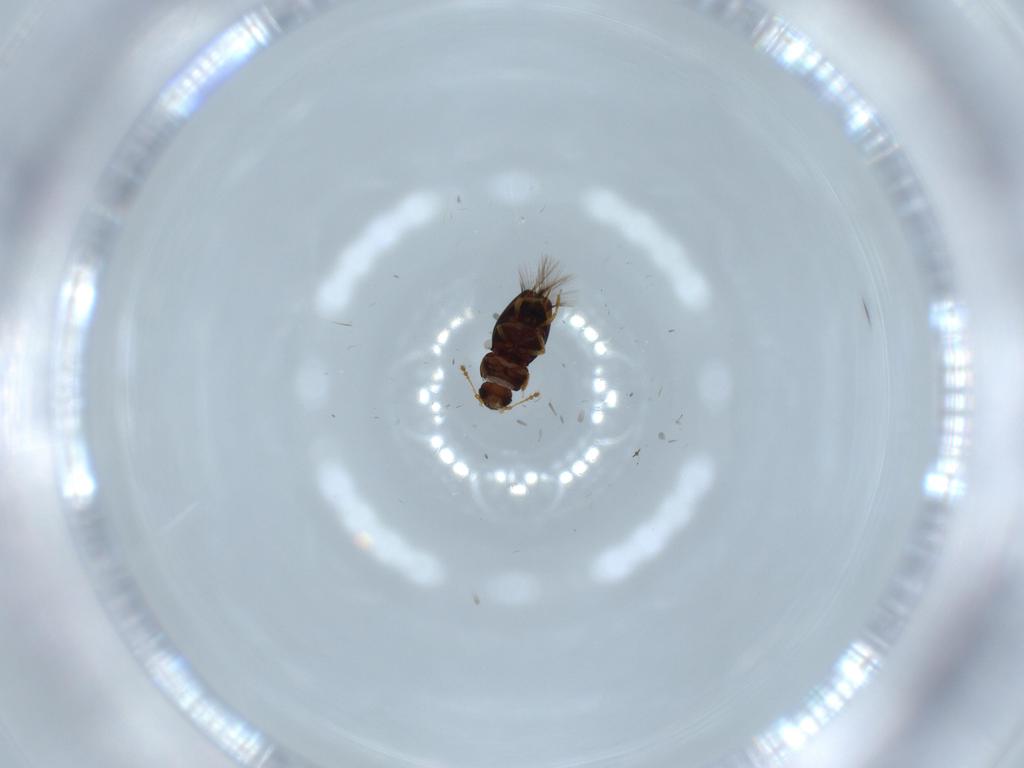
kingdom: Animalia
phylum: Arthropoda
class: Insecta
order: Coleoptera
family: Ptiliidae
